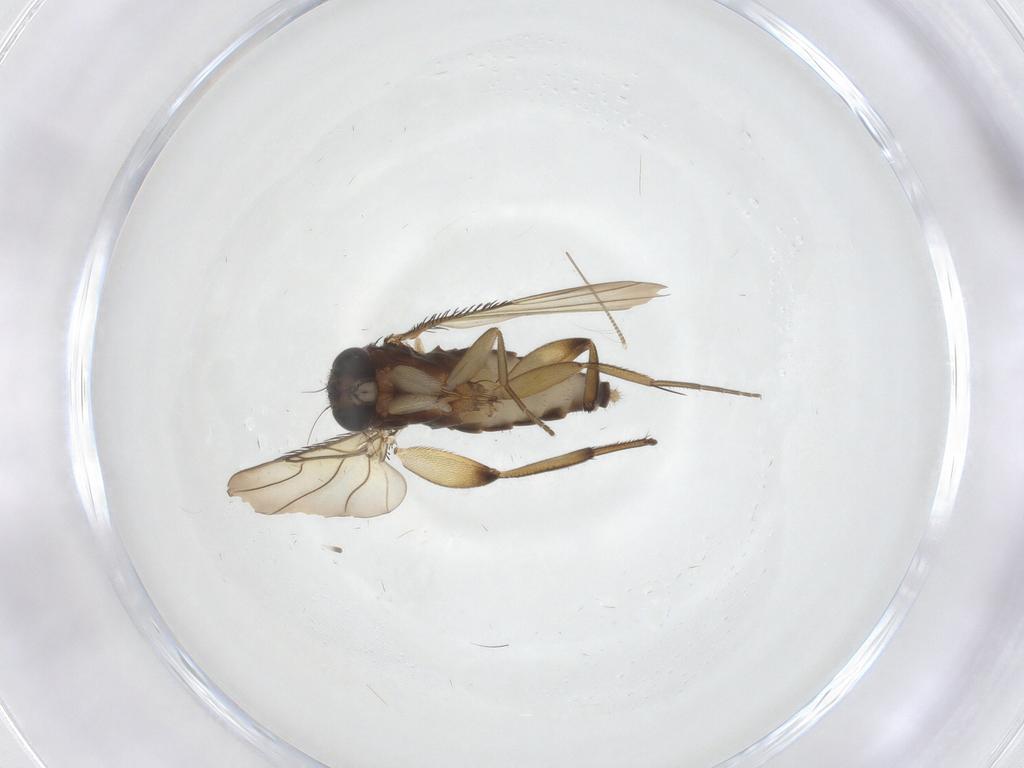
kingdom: Animalia
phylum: Arthropoda
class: Insecta
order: Diptera
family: Phoridae
